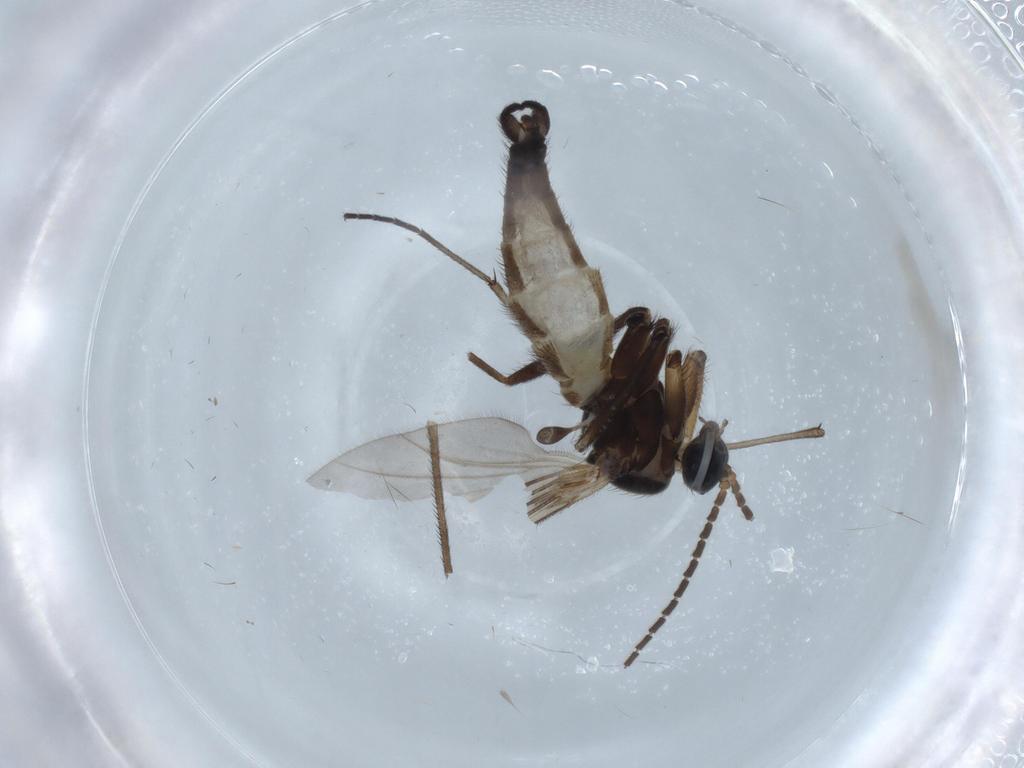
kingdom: Animalia
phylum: Arthropoda
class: Insecta
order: Diptera
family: Sciaridae
